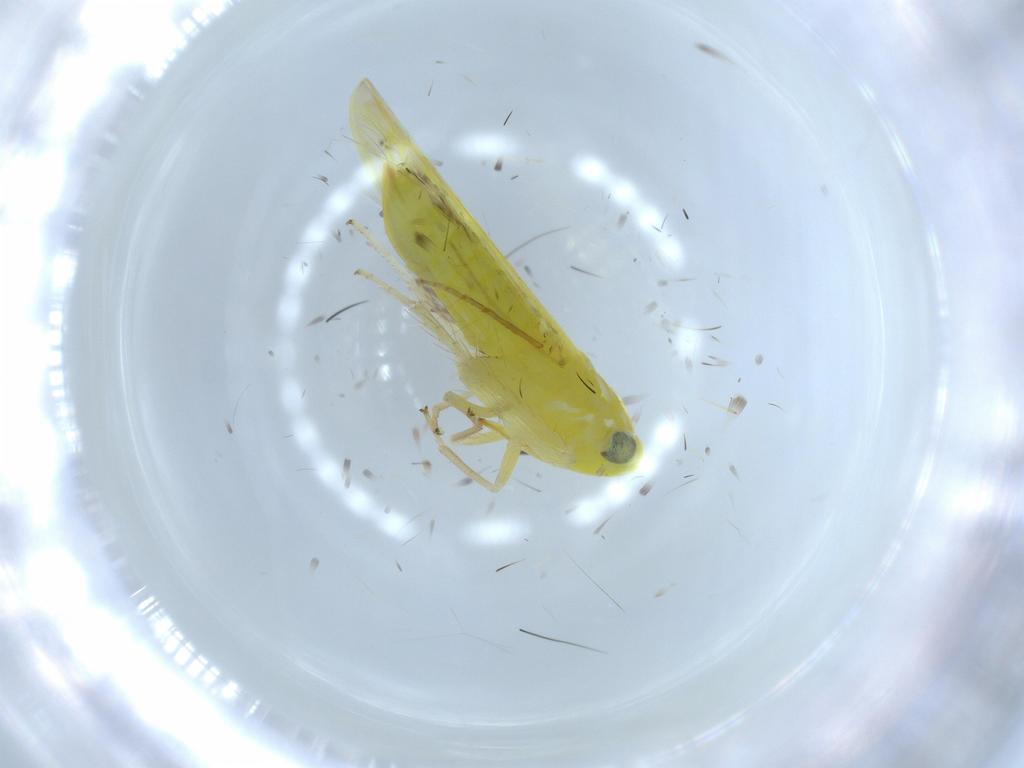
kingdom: Animalia
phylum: Arthropoda
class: Insecta
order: Hemiptera
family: Cicadellidae
